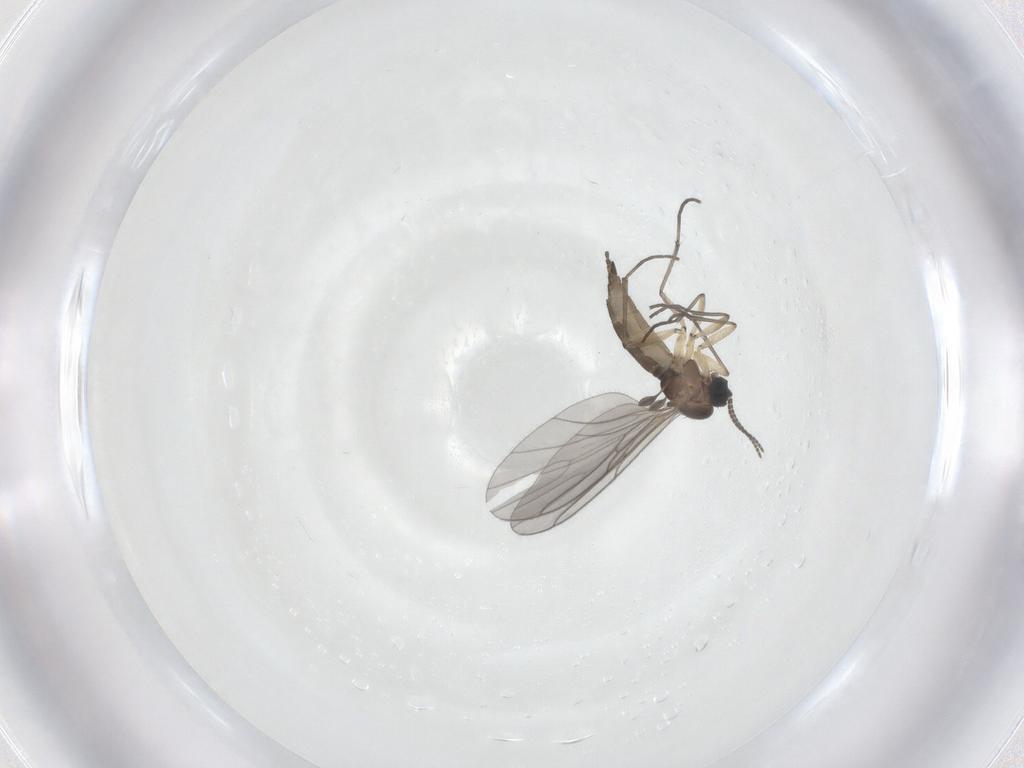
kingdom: Animalia
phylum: Arthropoda
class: Insecta
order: Diptera
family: Sciaridae
